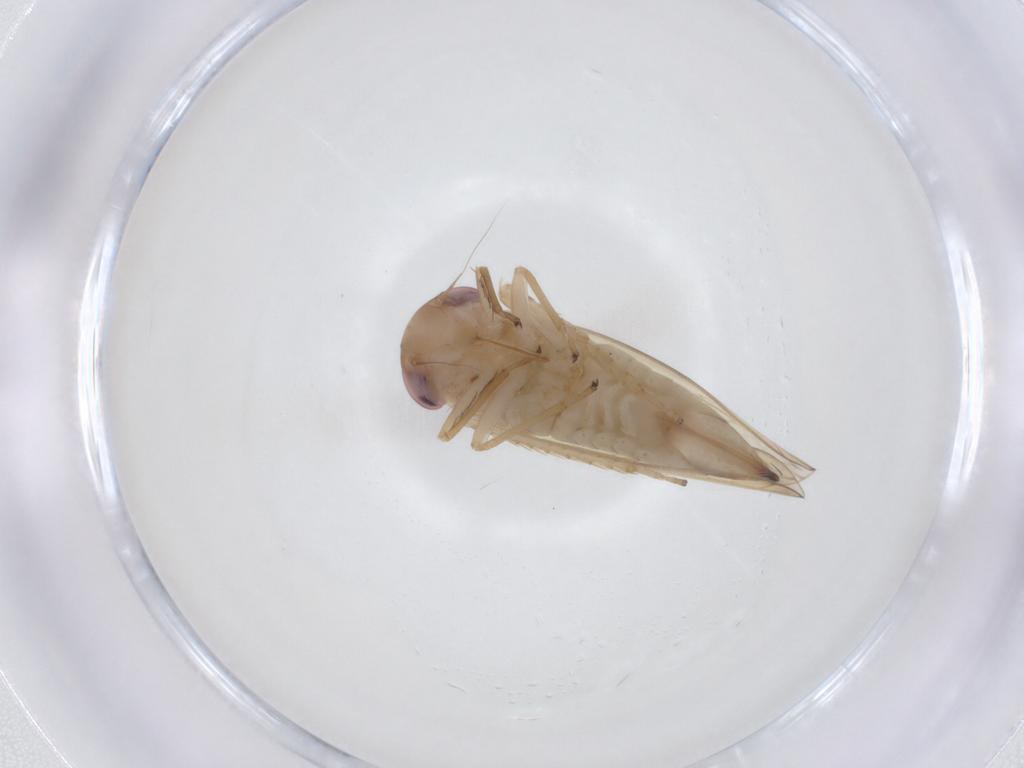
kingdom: Animalia
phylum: Arthropoda
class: Insecta
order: Hemiptera
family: Cicadellidae
